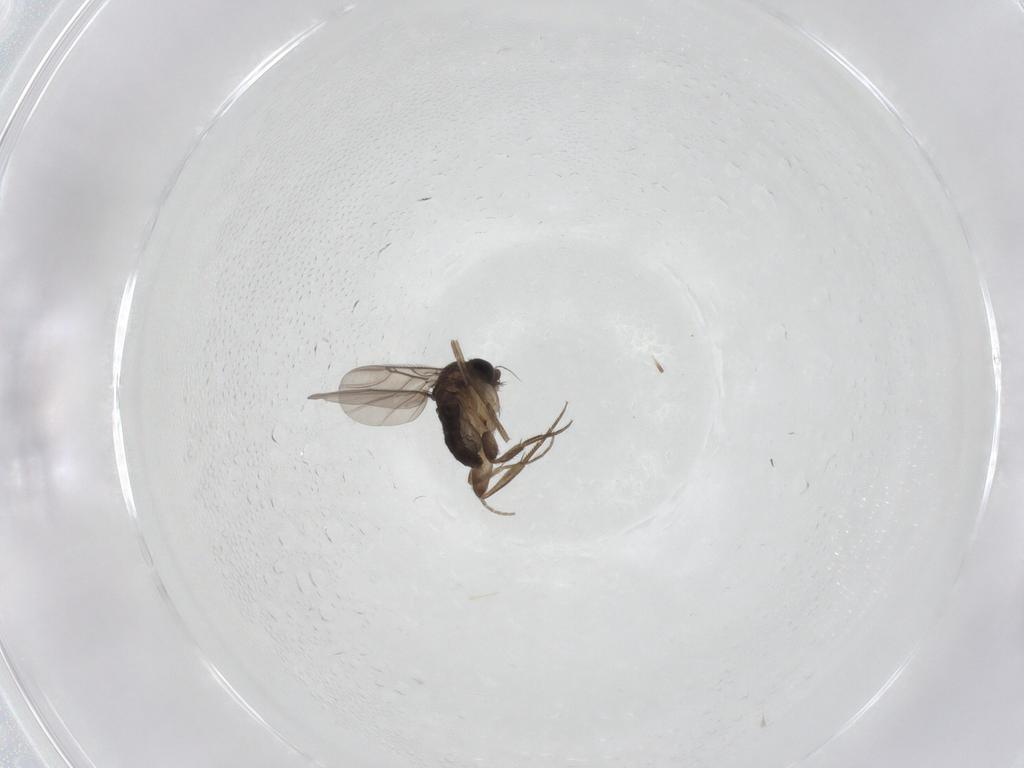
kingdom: Animalia
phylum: Arthropoda
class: Insecta
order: Diptera
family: Phoridae
